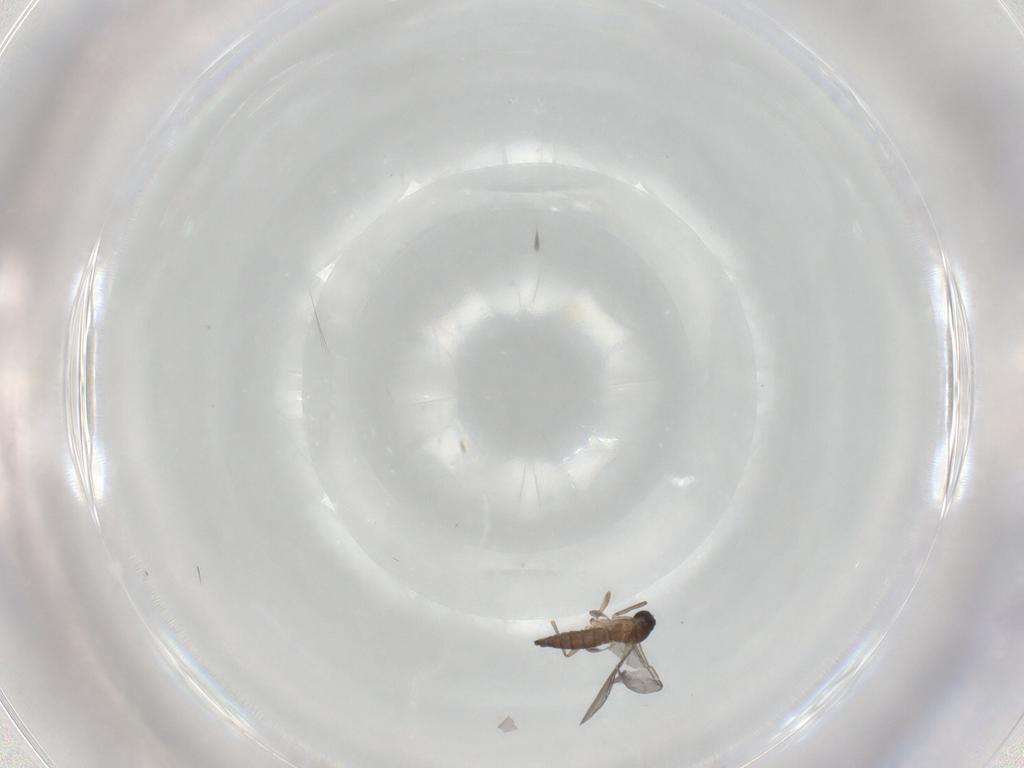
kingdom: Animalia
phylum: Arthropoda
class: Insecta
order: Diptera
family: Sciaridae
